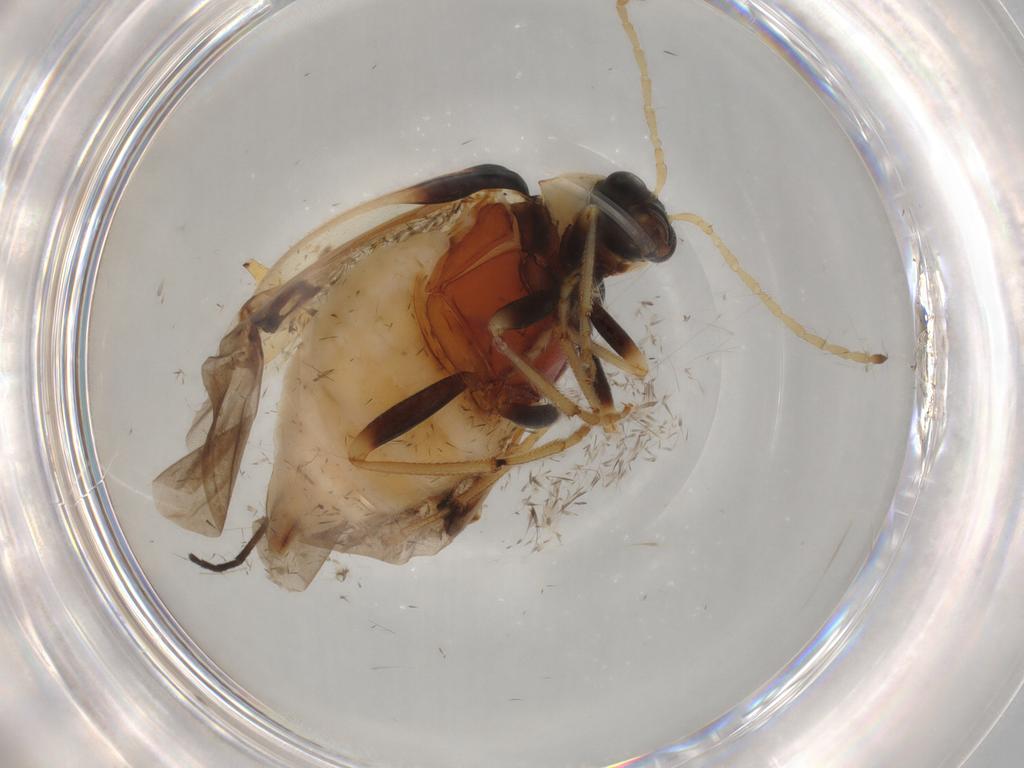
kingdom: Animalia
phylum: Arthropoda
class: Insecta
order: Coleoptera
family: Chrysomelidae
